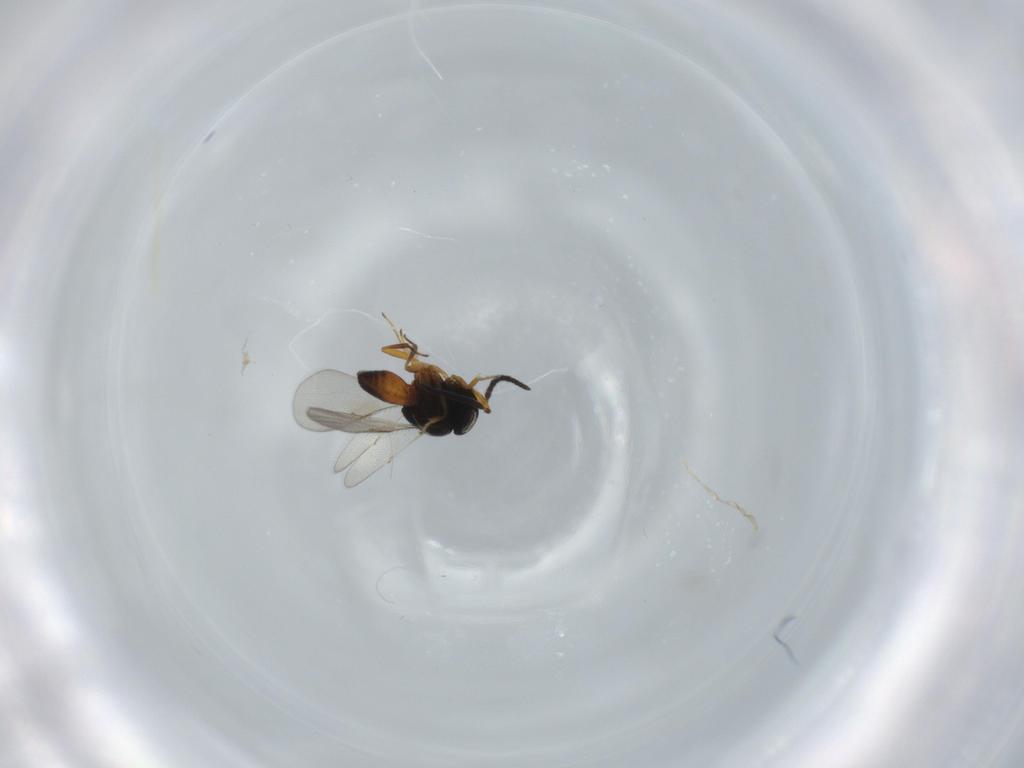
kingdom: Animalia
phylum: Arthropoda
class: Insecta
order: Hymenoptera
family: Scelionidae
